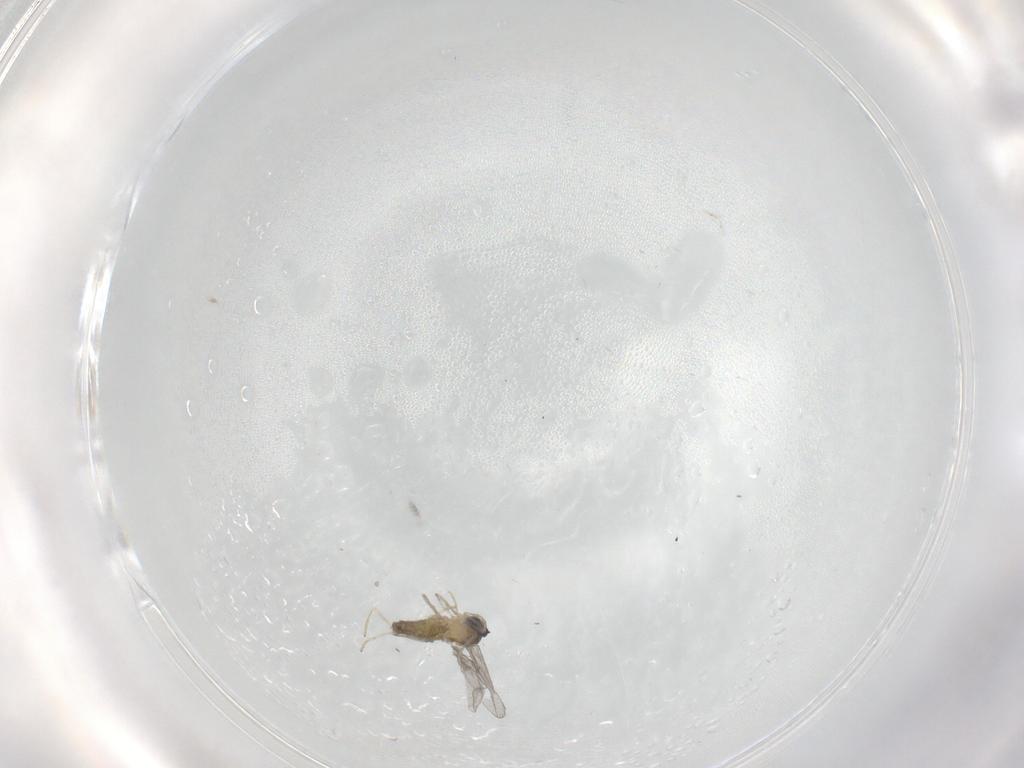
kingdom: Animalia
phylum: Arthropoda
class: Insecta
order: Diptera
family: Cecidomyiidae
